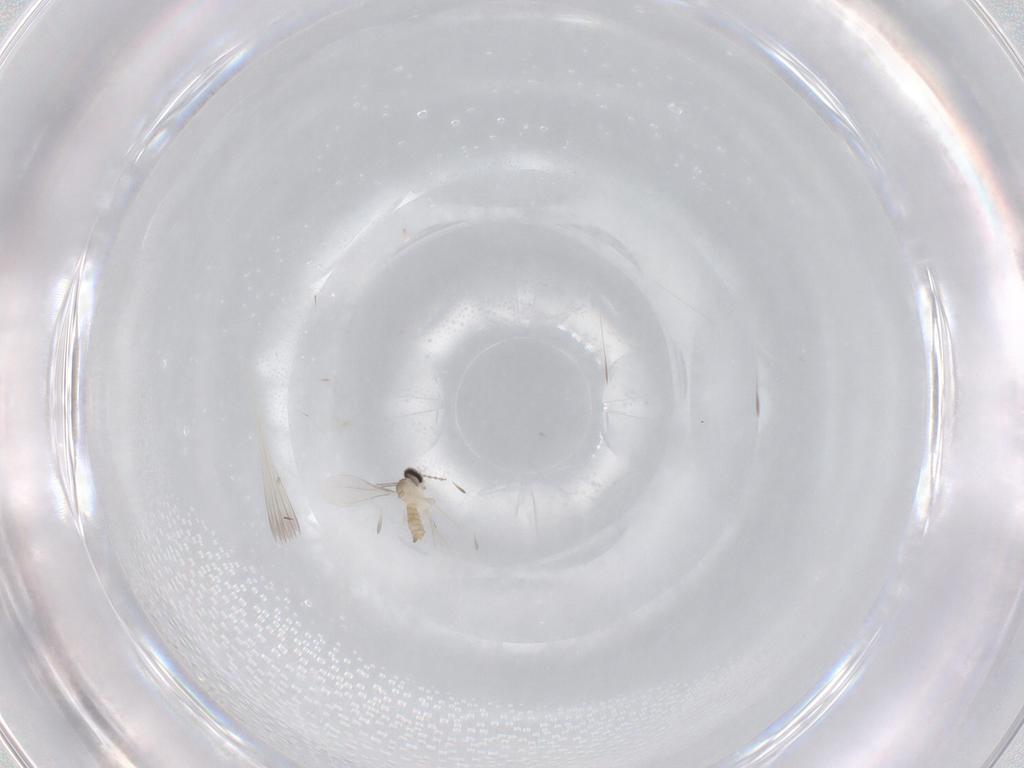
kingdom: Animalia
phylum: Arthropoda
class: Insecta
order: Diptera
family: Cecidomyiidae
